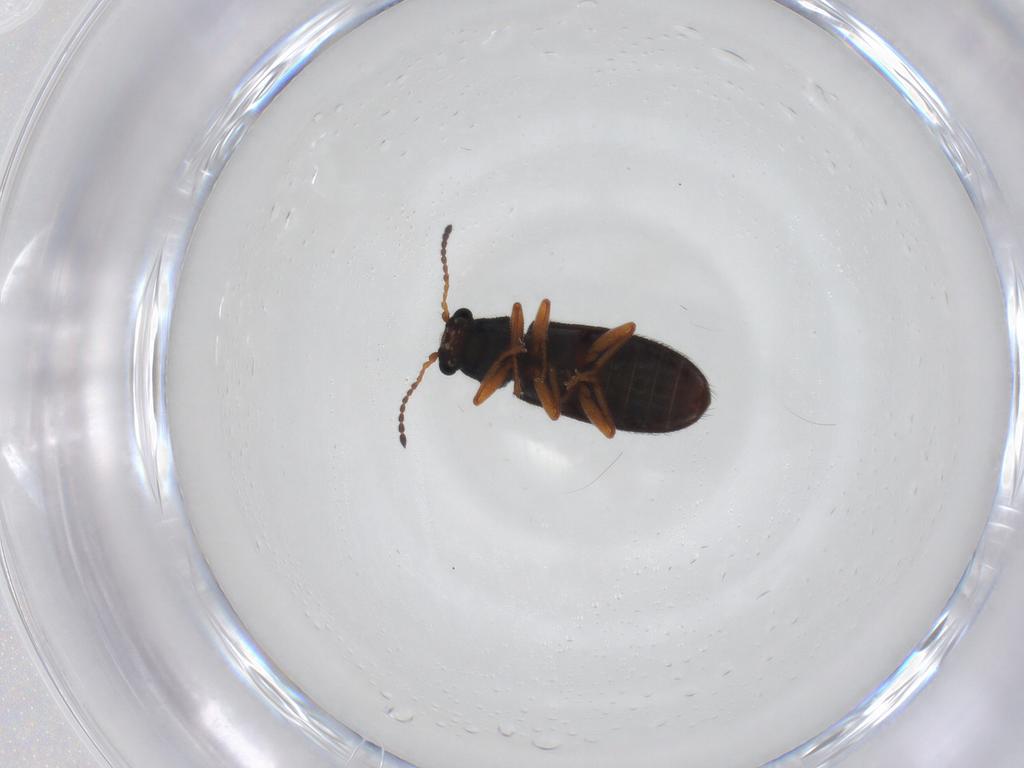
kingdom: Animalia
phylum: Arthropoda
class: Insecta
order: Coleoptera
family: Melyridae
